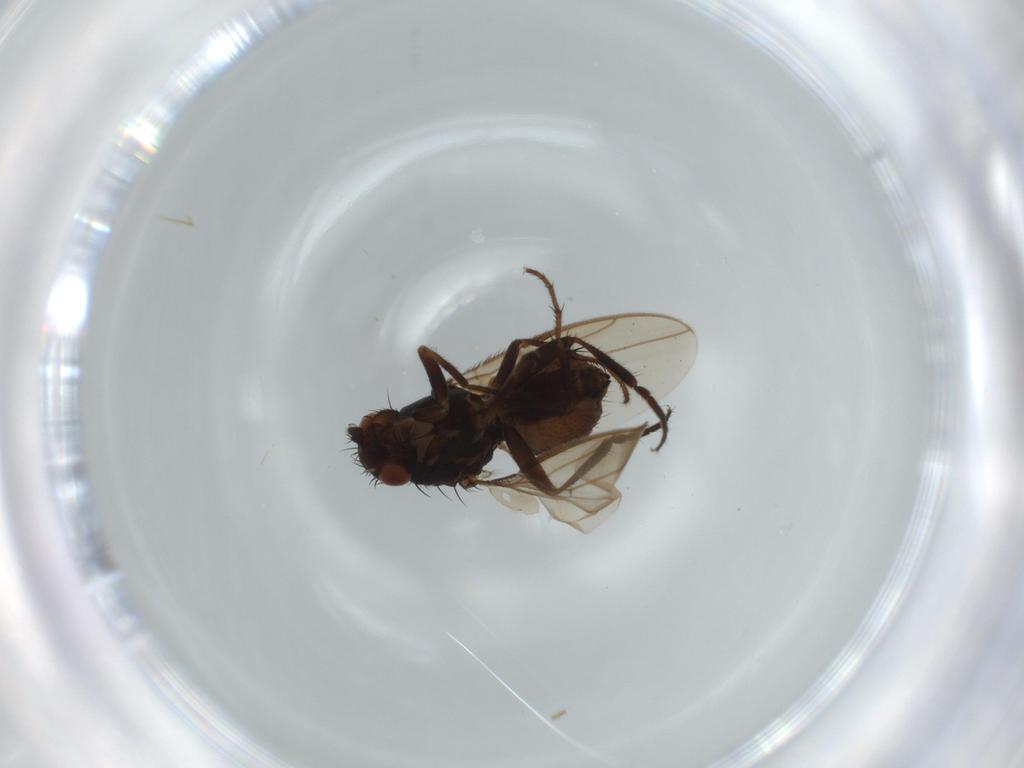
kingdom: Animalia
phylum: Arthropoda
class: Insecta
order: Diptera
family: Sphaeroceridae
